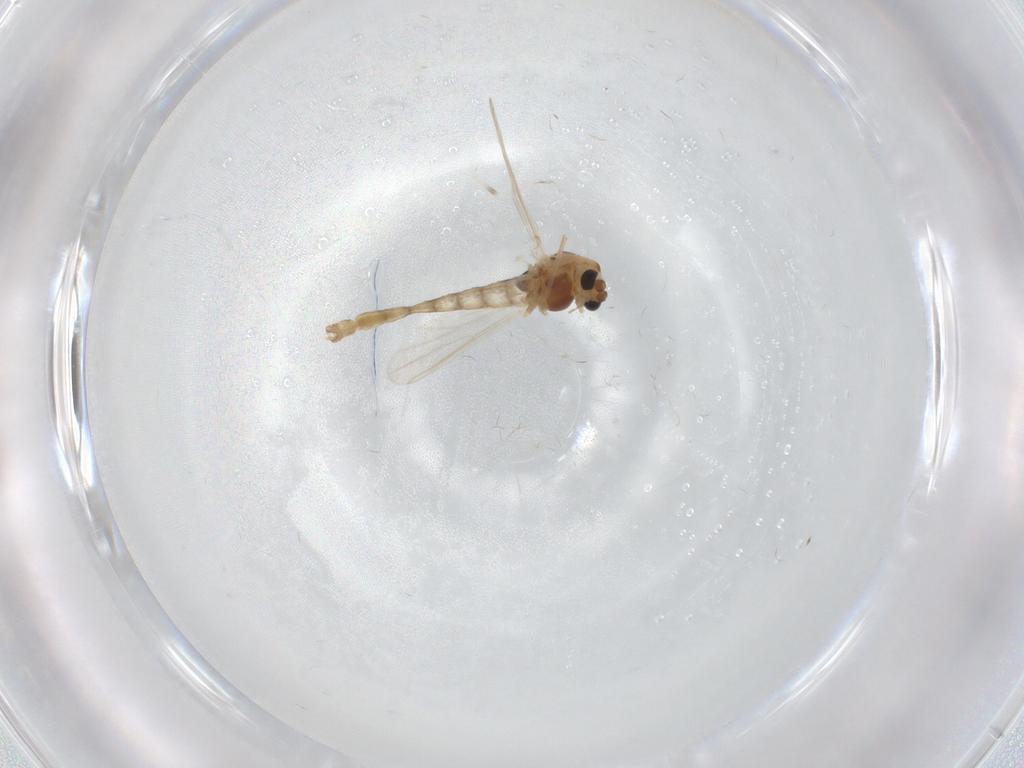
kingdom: Animalia
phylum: Arthropoda
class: Insecta
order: Diptera
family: Chironomidae
